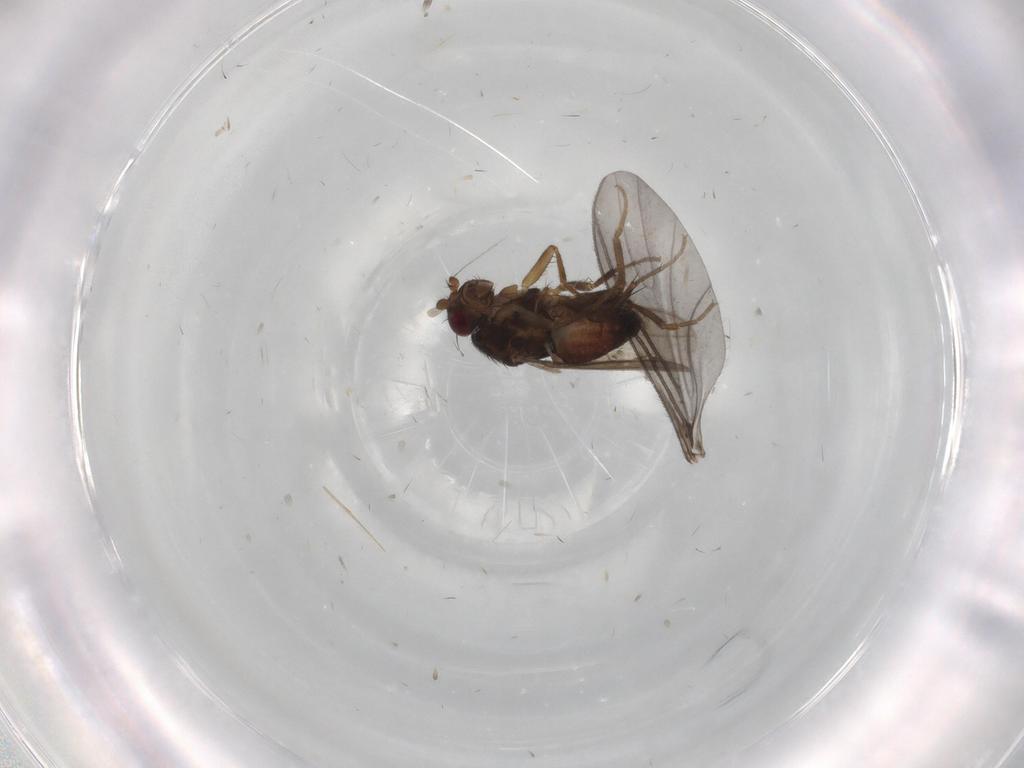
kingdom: Animalia
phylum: Arthropoda
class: Insecta
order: Diptera
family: Sphaeroceridae
